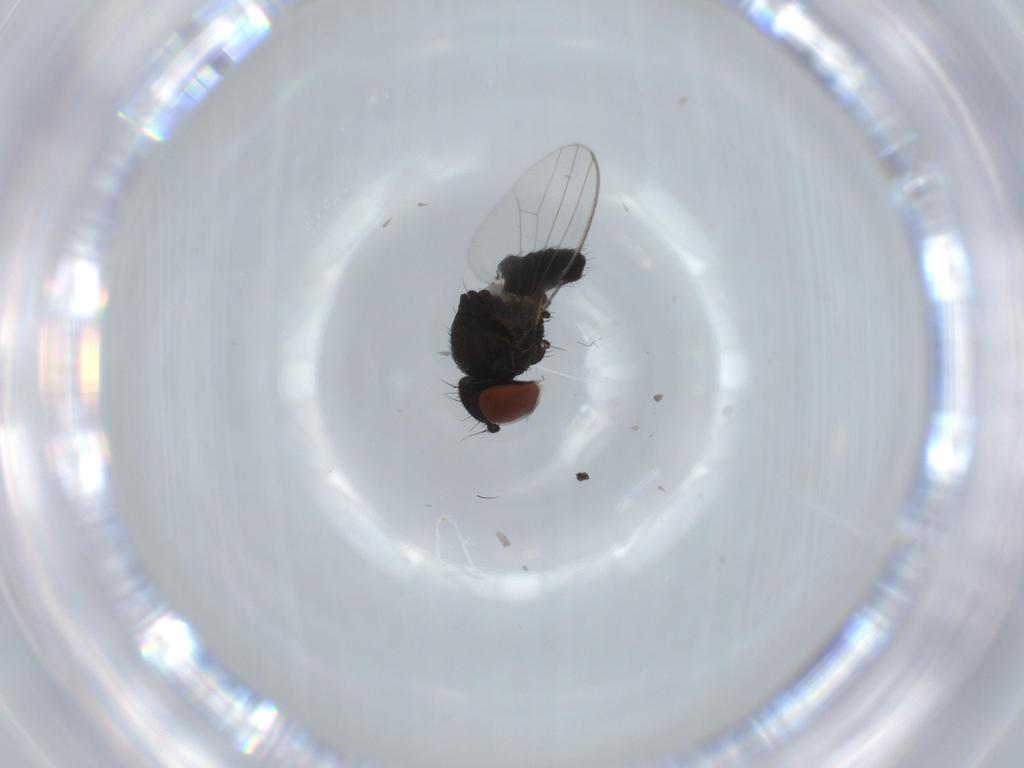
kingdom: Animalia
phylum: Arthropoda
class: Insecta
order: Diptera
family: Milichiidae
